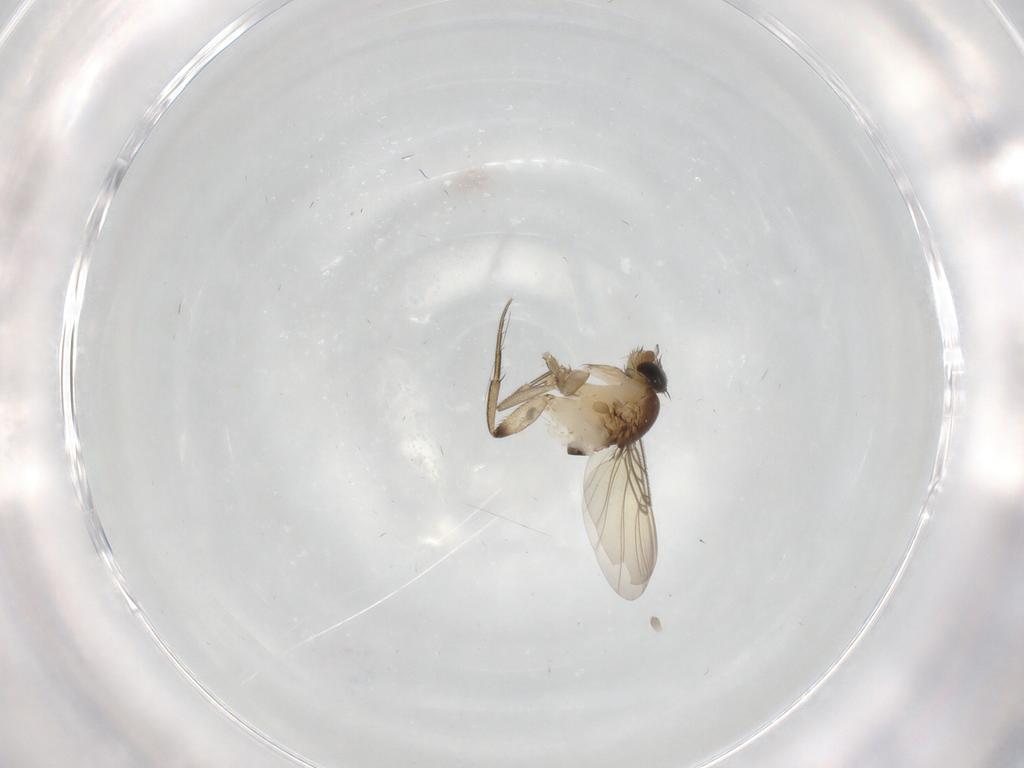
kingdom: Animalia
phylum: Arthropoda
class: Insecta
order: Diptera
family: Phoridae
